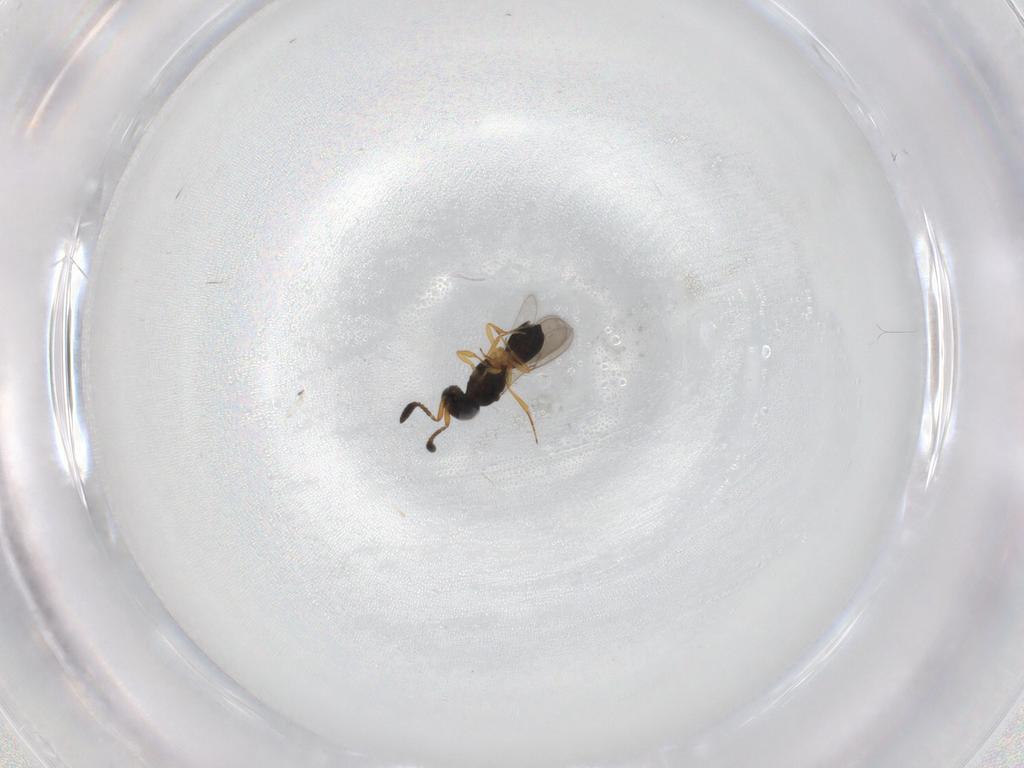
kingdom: Animalia
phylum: Arthropoda
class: Insecta
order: Hymenoptera
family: Scelionidae
